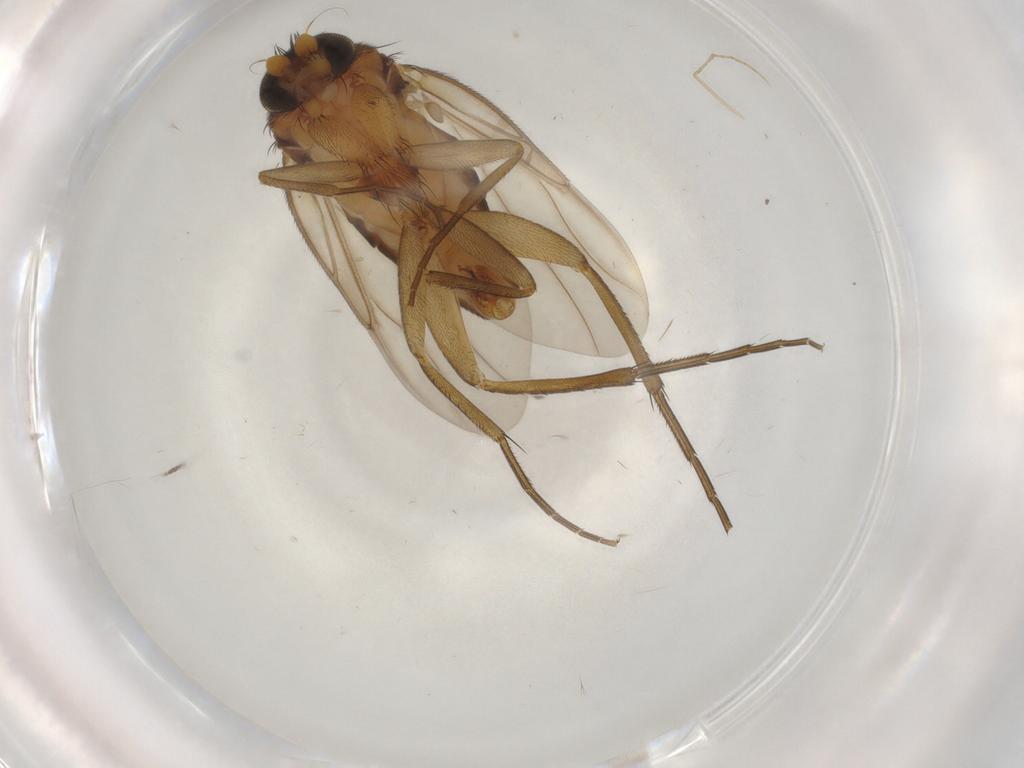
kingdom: Animalia
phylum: Arthropoda
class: Insecta
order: Diptera
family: Phoridae
